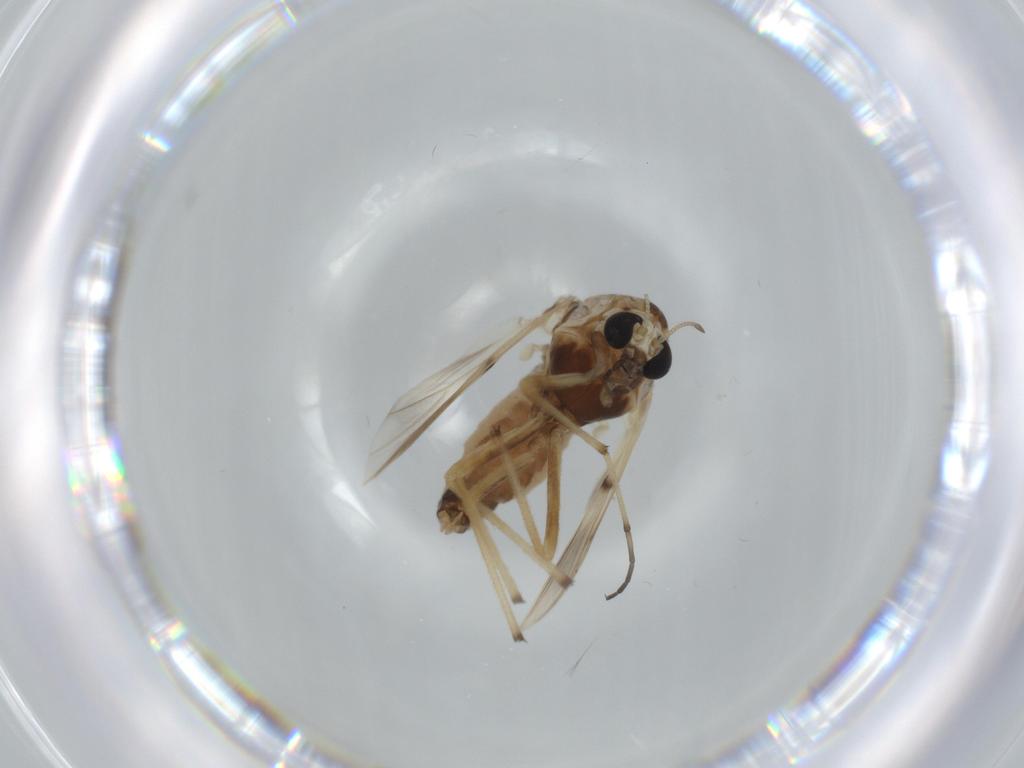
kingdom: Animalia
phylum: Arthropoda
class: Insecta
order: Diptera
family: Chironomidae
